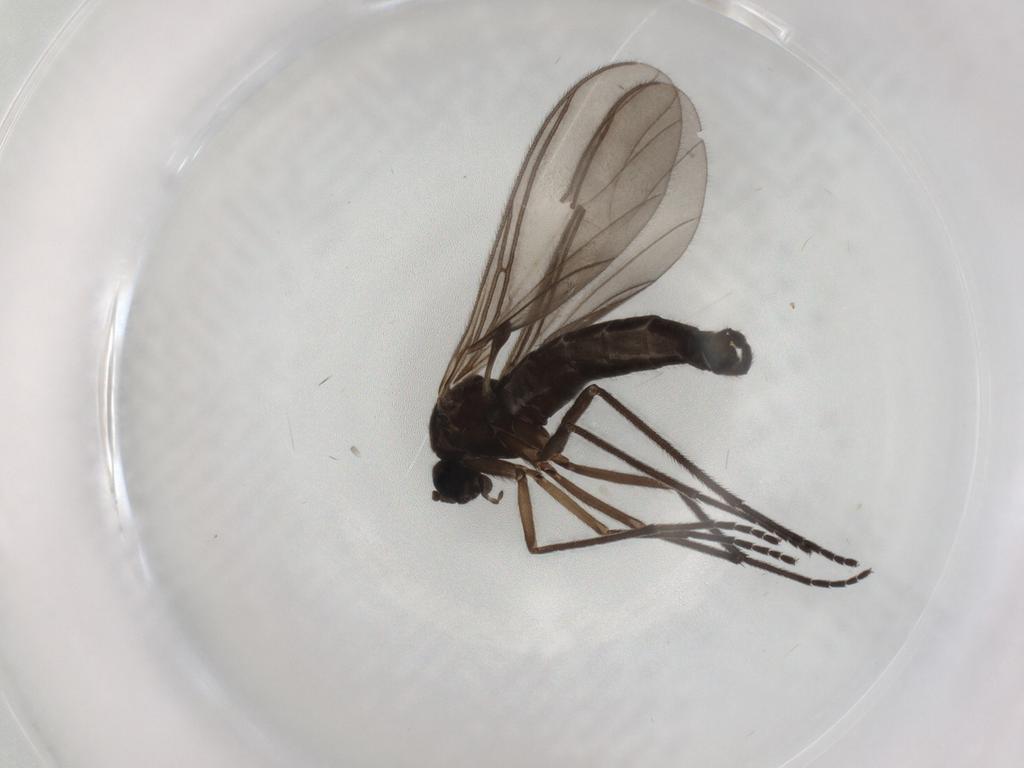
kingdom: Animalia
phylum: Arthropoda
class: Insecta
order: Diptera
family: Sciaridae
